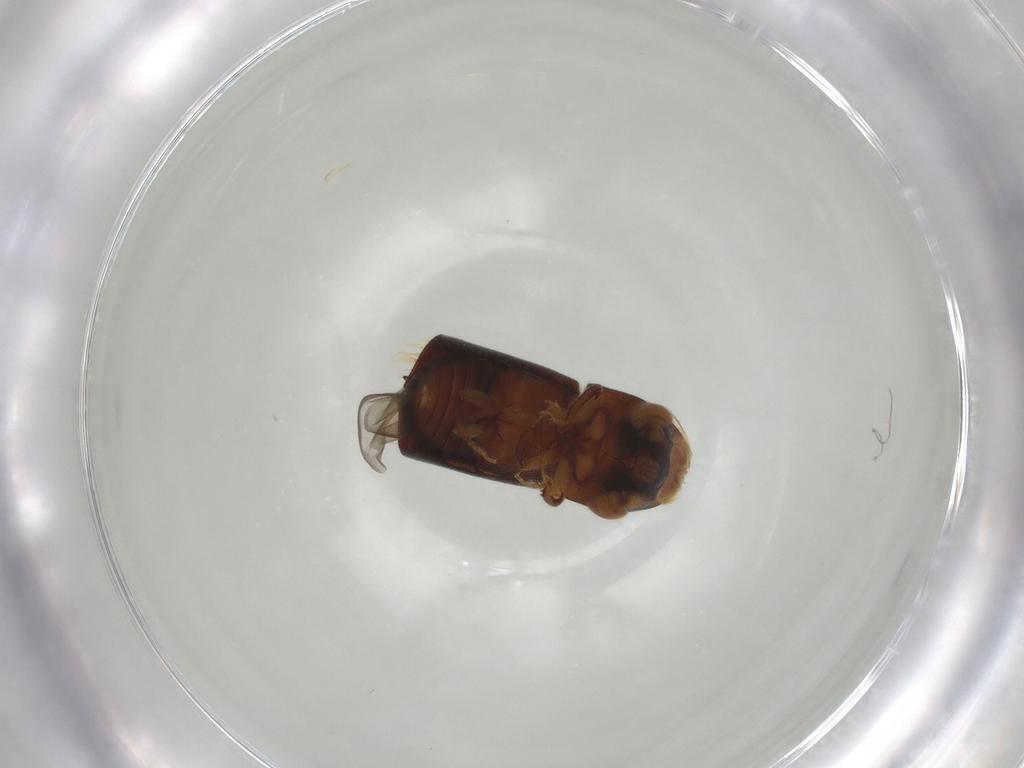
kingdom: Animalia
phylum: Arthropoda
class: Insecta
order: Coleoptera
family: Curculionidae
